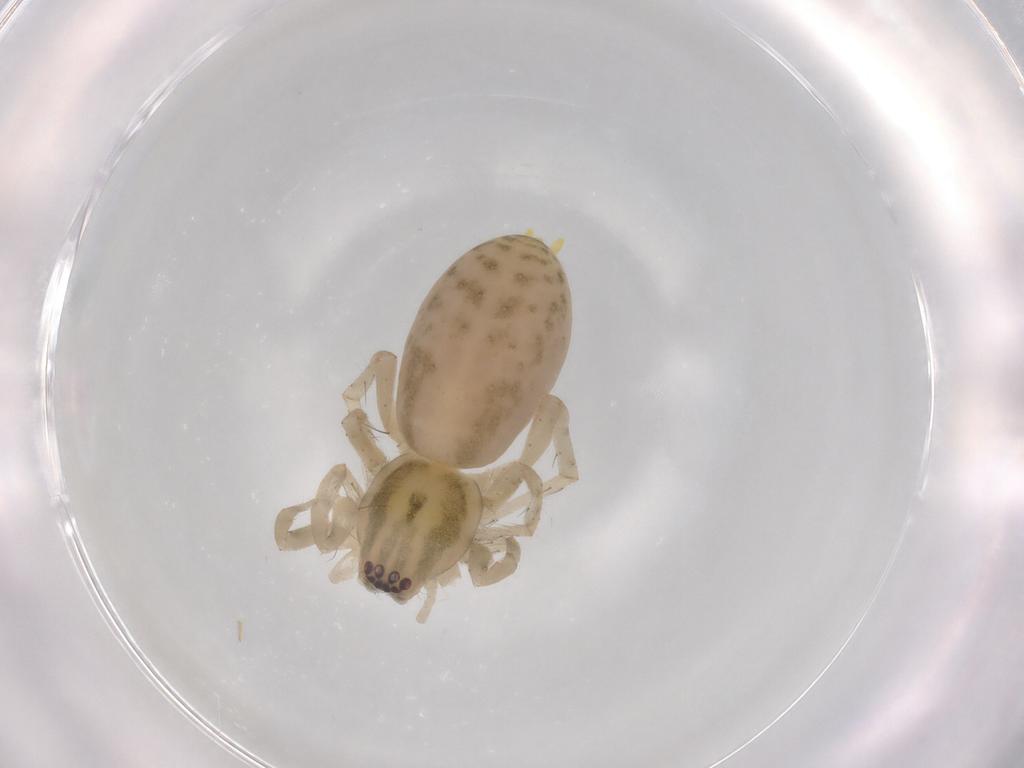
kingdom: Animalia
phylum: Arthropoda
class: Arachnida
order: Araneae
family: Anyphaenidae
